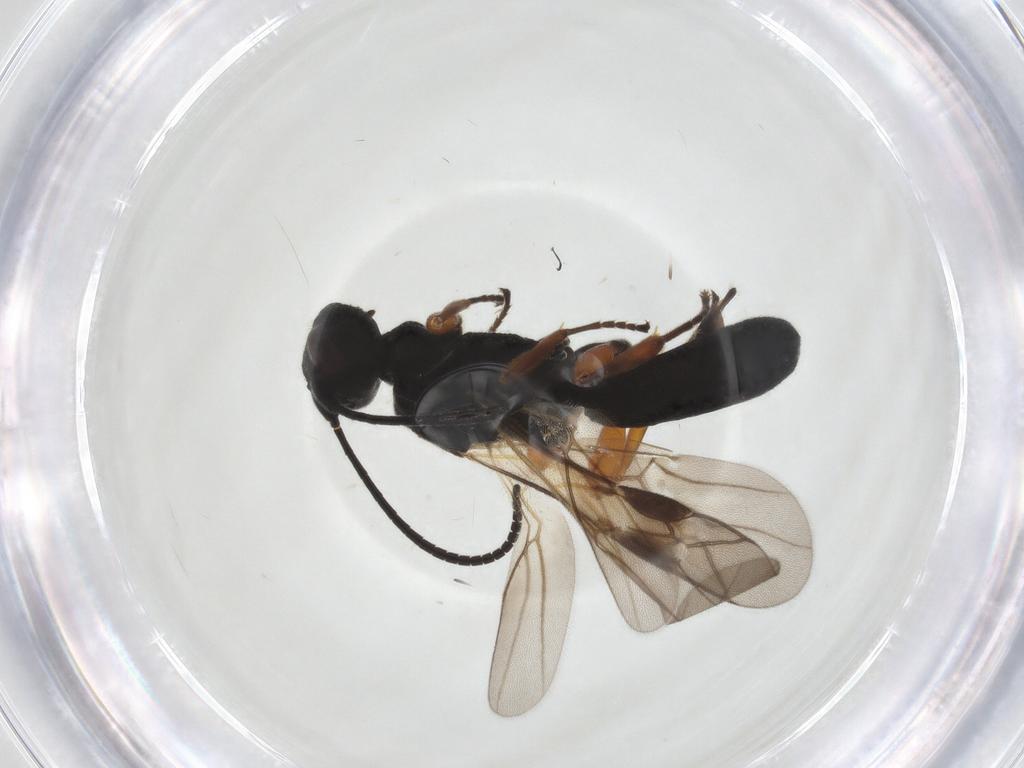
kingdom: Animalia
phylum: Arthropoda
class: Insecta
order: Hymenoptera
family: Braconidae
